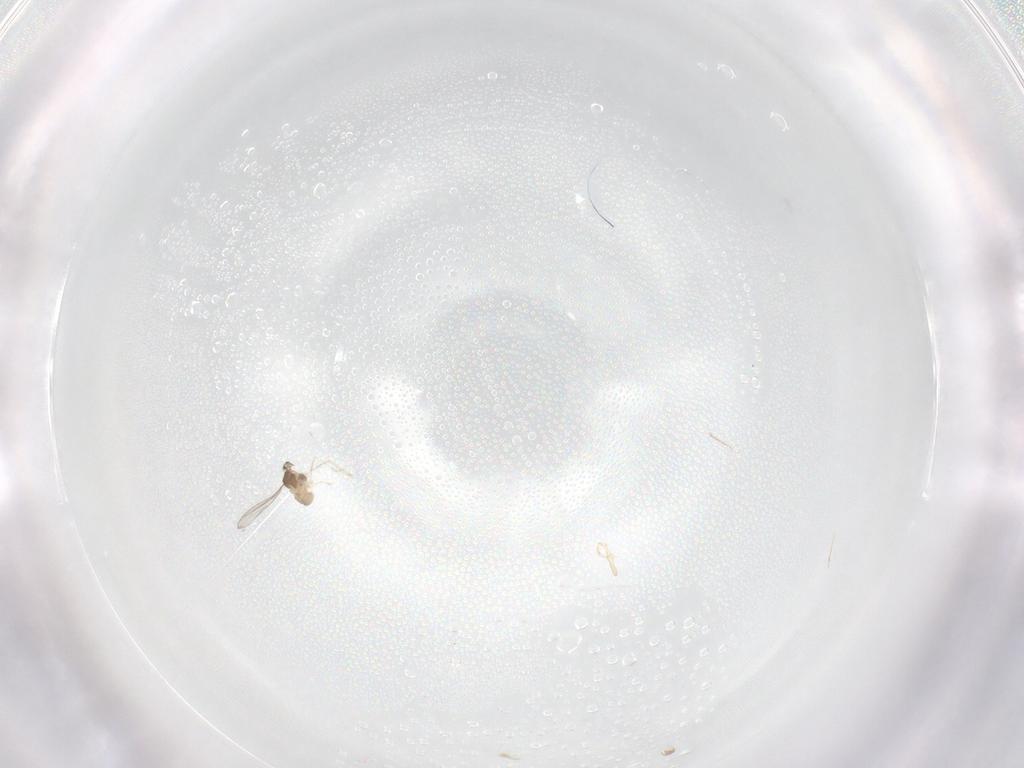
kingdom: Animalia
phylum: Arthropoda
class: Insecta
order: Diptera
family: Cecidomyiidae
